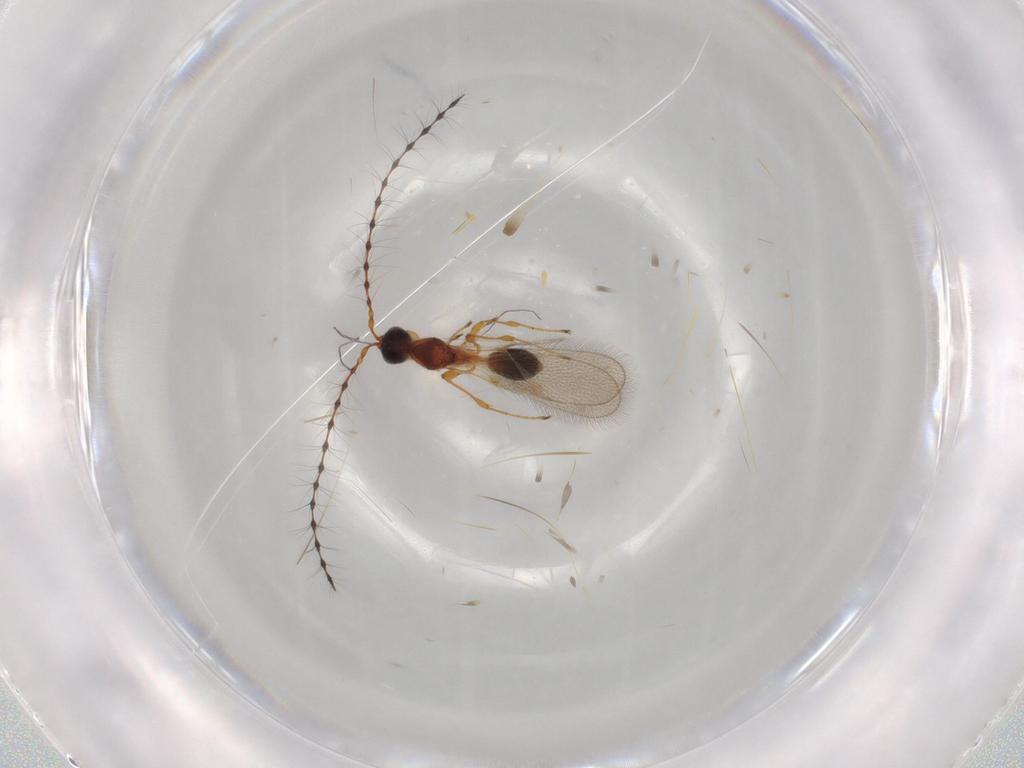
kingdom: Animalia
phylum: Arthropoda
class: Insecta
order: Hymenoptera
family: Diapriidae
